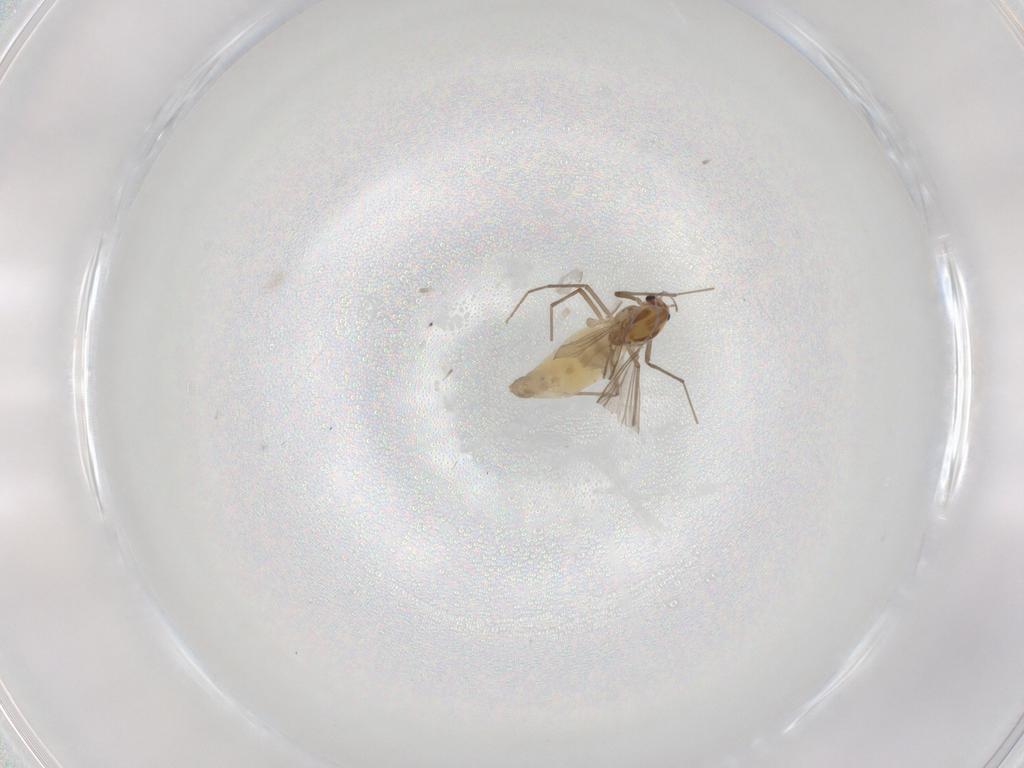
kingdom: Animalia
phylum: Arthropoda
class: Insecta
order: Diptera
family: Chironomidae
